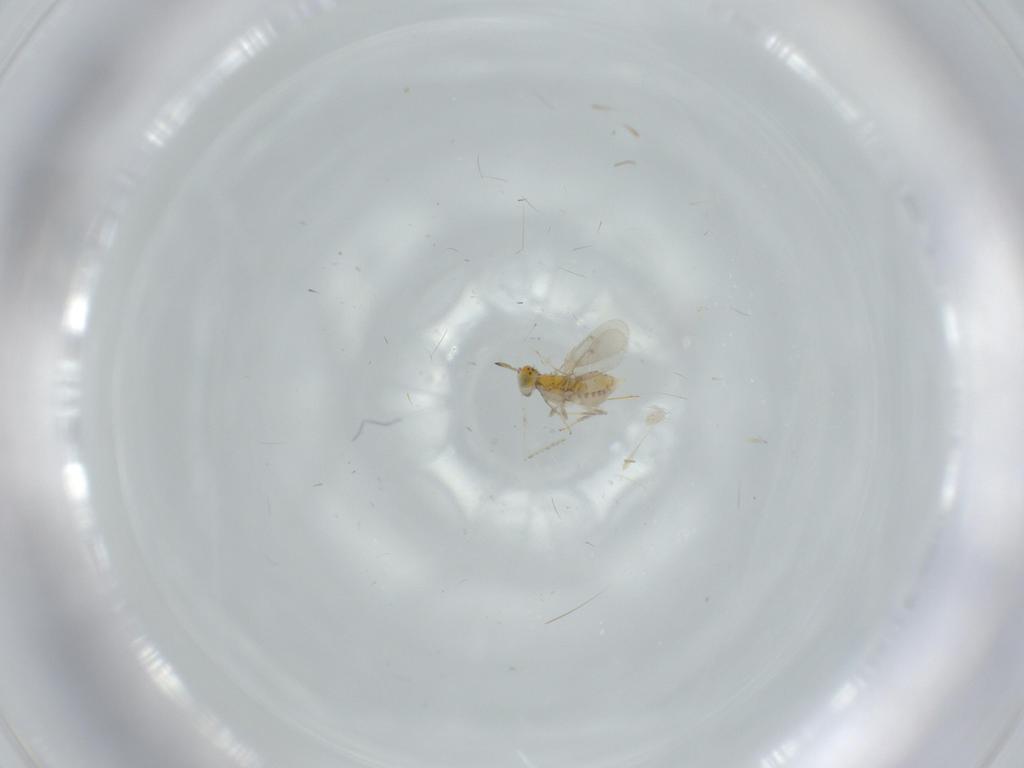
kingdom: Animalia
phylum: Arthropoda
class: Insecta
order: Hymenoptera
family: Aphelinidae
